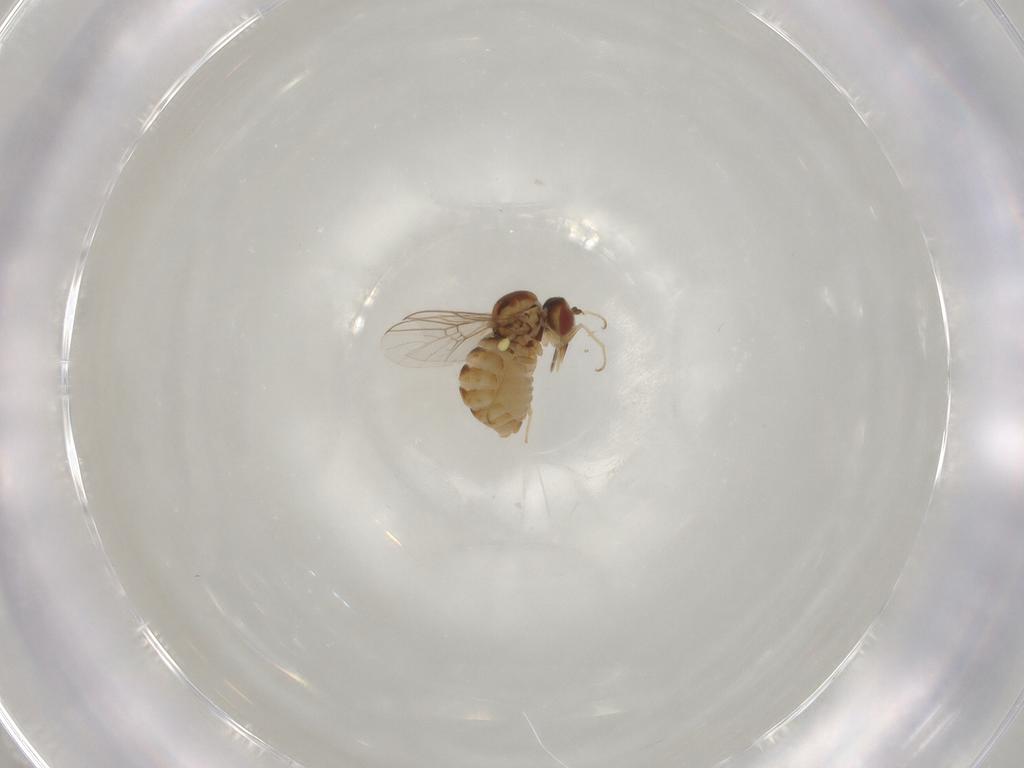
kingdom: Animalia
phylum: Arthropoda
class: Insecta
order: Diptera
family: Mythicomyiidae
